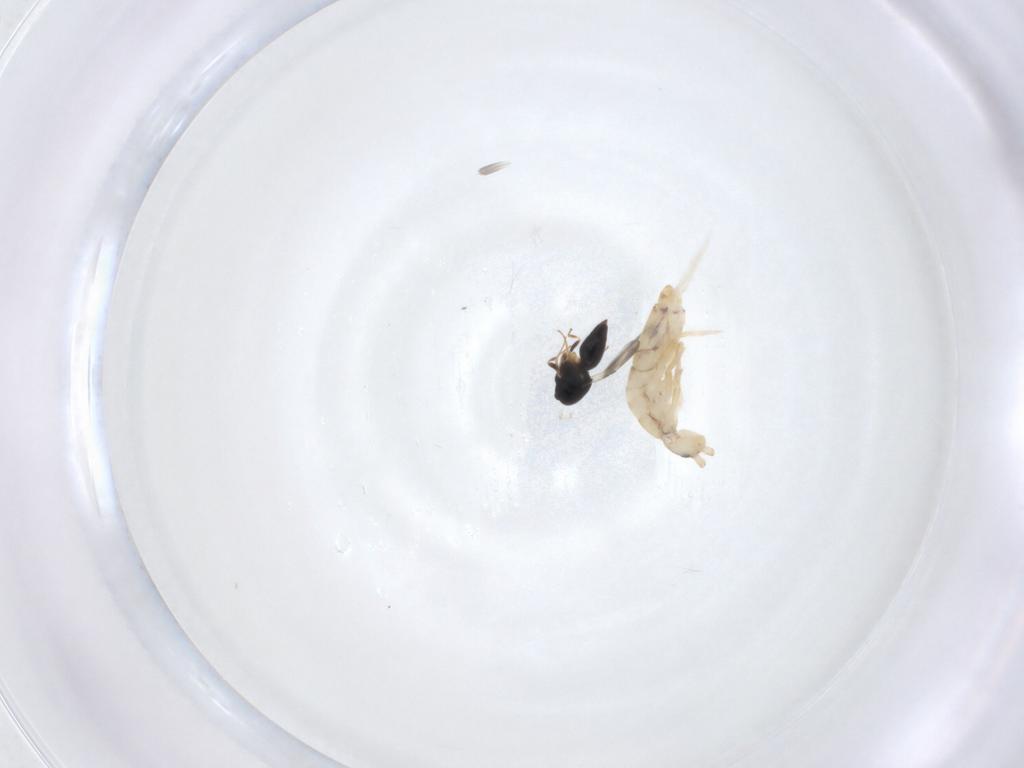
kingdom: Animalia
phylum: Arthropoda
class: Collembola
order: Entomobryomorpha
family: Entomobryidae
